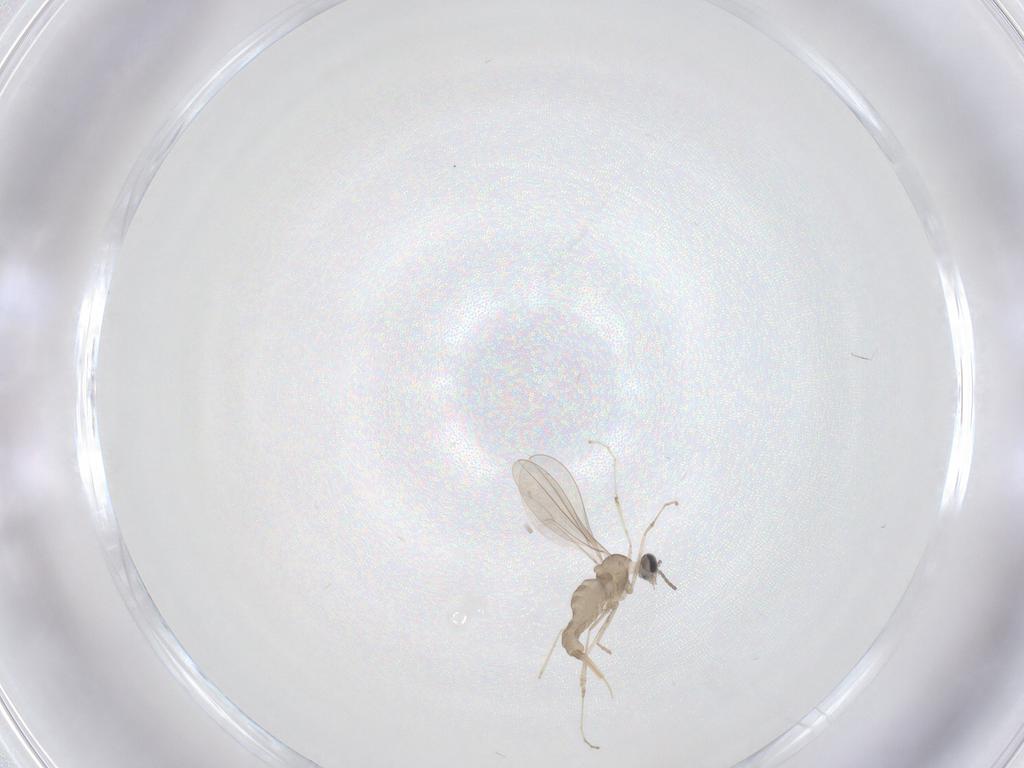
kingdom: Animalia
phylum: Arthropoda
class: Insecta
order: Diptera
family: Cecidomyiidae
